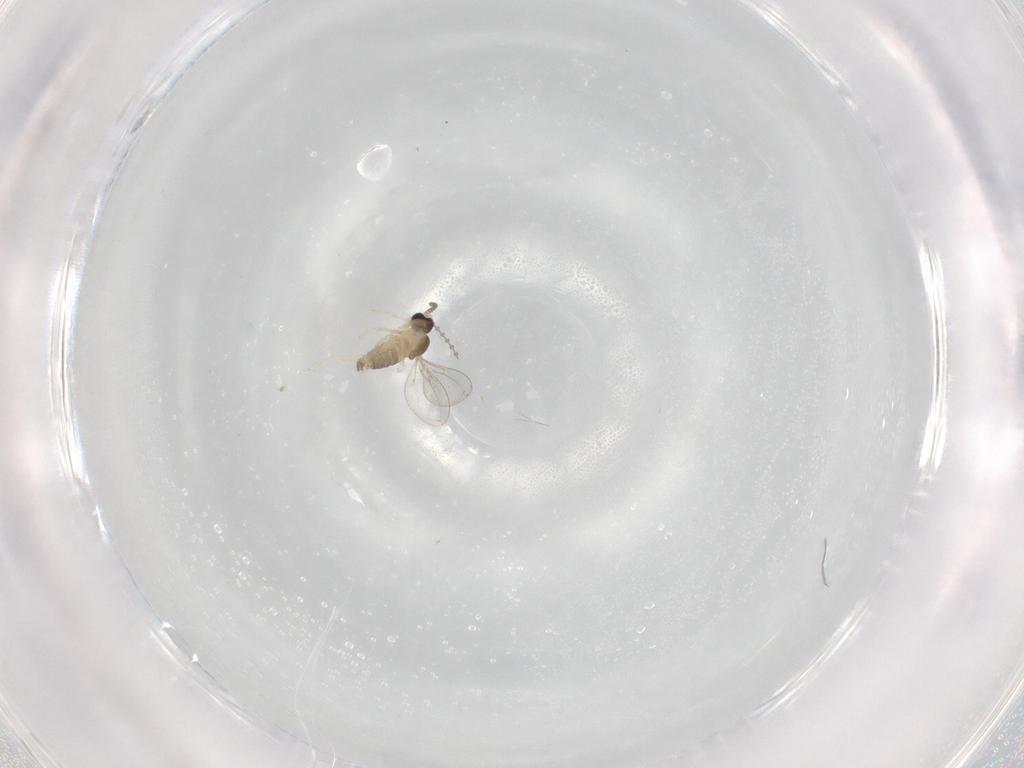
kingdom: Animalia
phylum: Arthropoda
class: Insecta
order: Diptera
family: Cecidomyiidae
